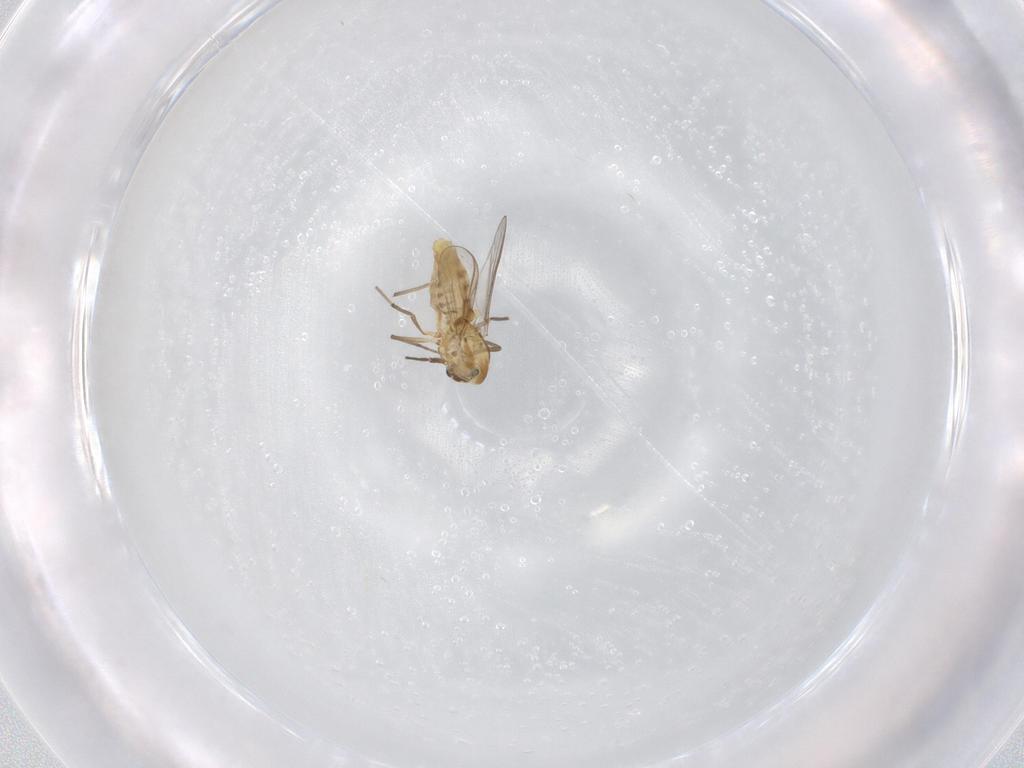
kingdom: Animalia
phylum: Arthropoda
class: Insecta
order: Diptera
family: Chironomidae
